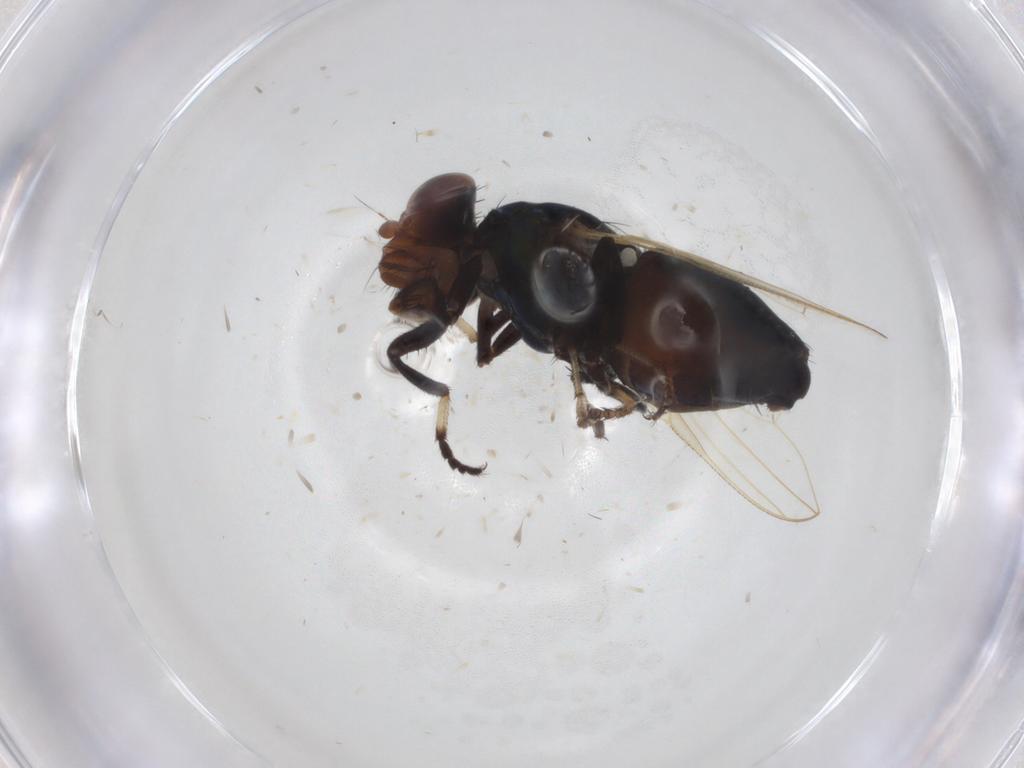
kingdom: Animalia
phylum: Arthropoda
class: Insecta
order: Diptera
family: Ulidiidae
